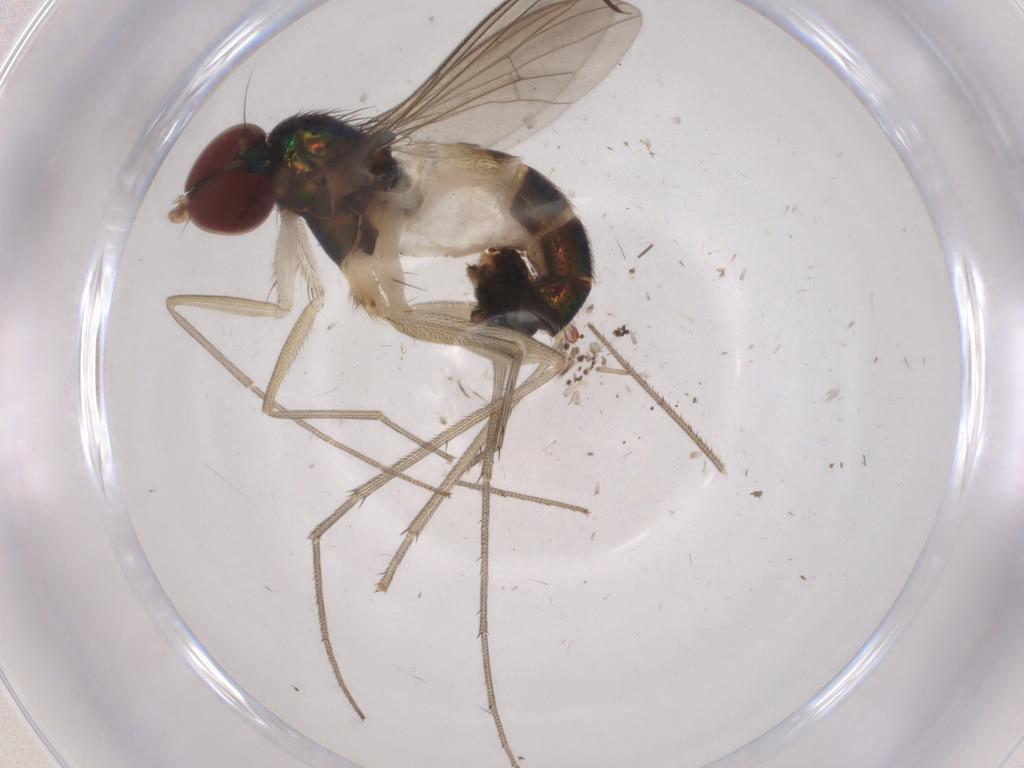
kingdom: Animalia
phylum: Arthropoda
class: Insecta
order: Diptera
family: Dolichopodidae
